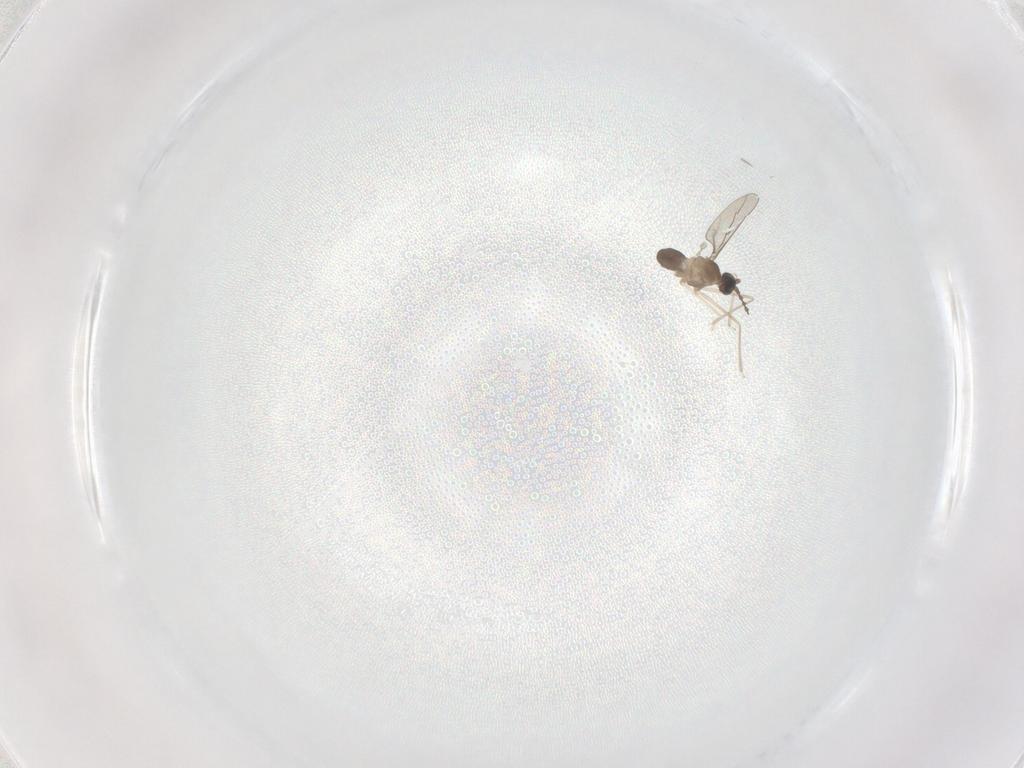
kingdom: Animalia
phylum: Arthropoda
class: Insecta
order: Diptera
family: Cecidomyiidae
